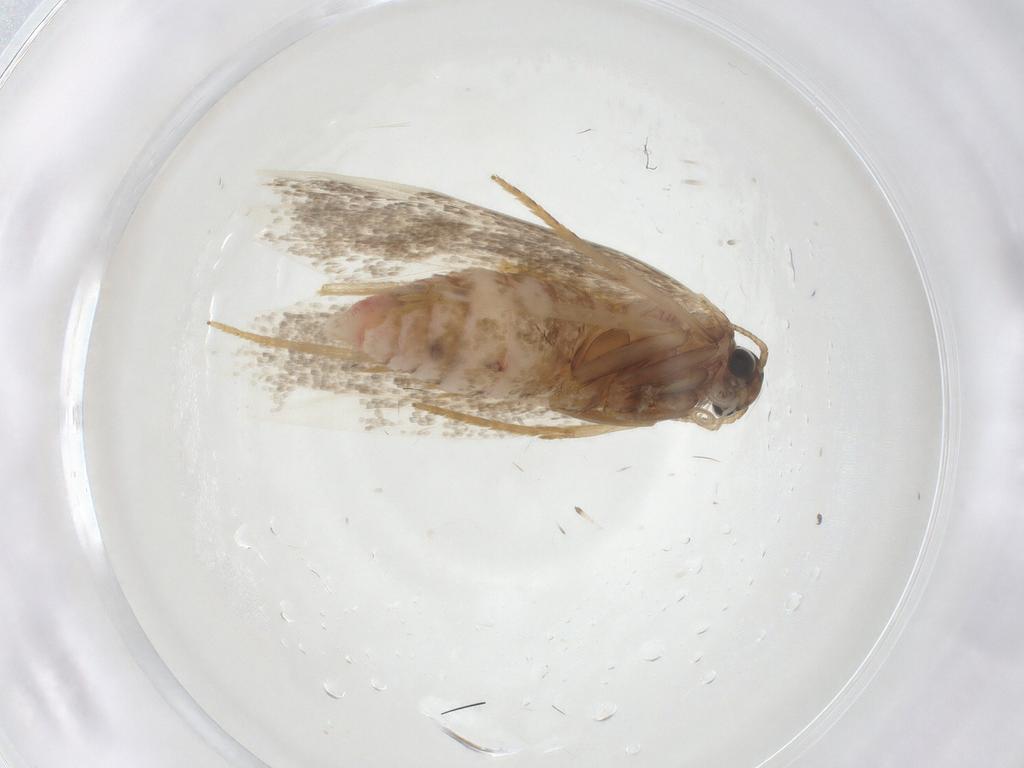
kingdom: Animalia
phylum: Arthropoda
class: Insecta
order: Lepidoptera
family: Autostichidae
